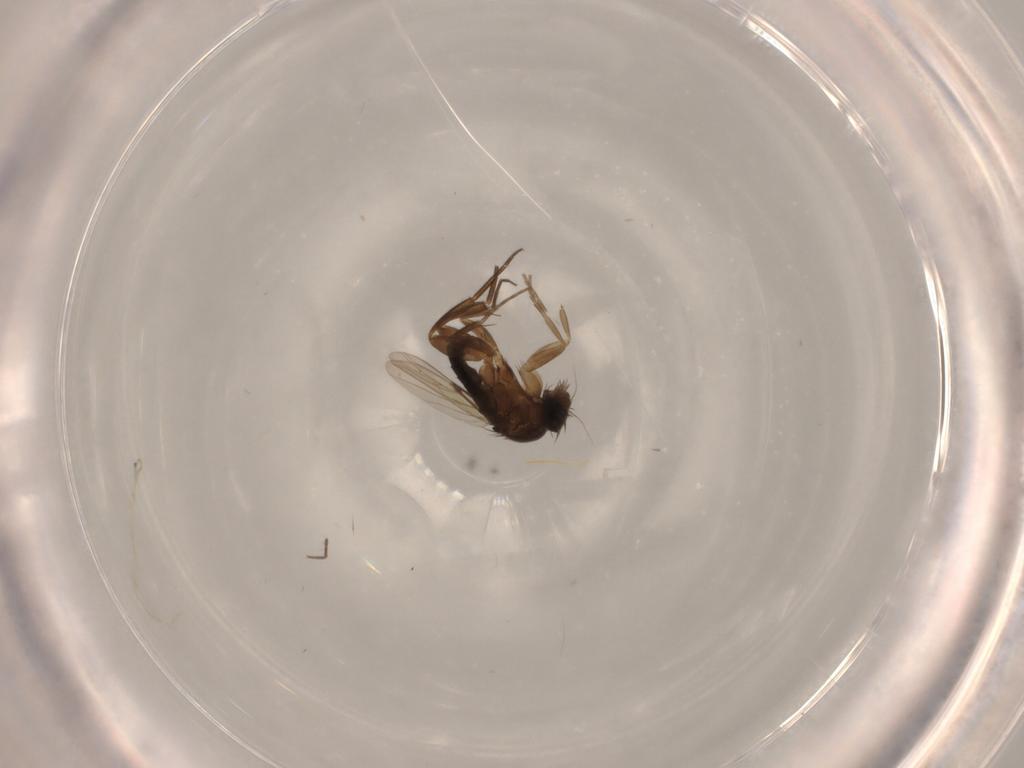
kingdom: Animalia
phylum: Arthropoda
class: Insecta
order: Diptera
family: Phoridae
